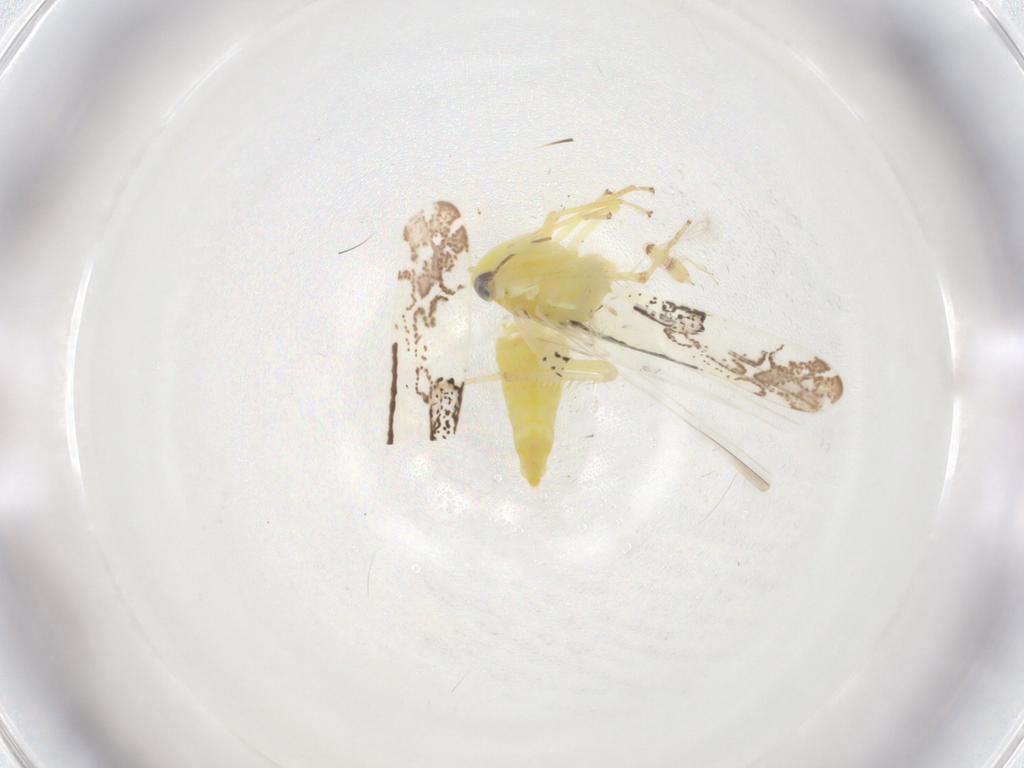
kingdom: Animalia
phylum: Arthropoda
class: Insecta
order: Hemiptera
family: Cicadellidae
